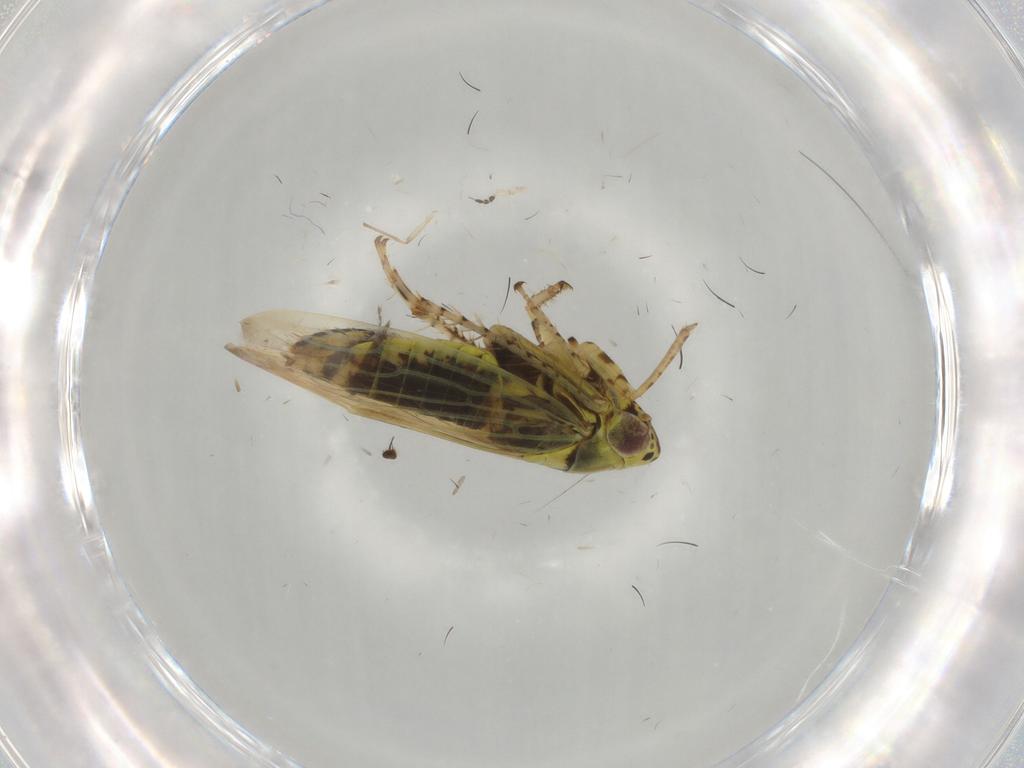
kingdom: Animalia
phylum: Arthropoda
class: Insecta
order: Hemiptera
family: Cicadellidae
